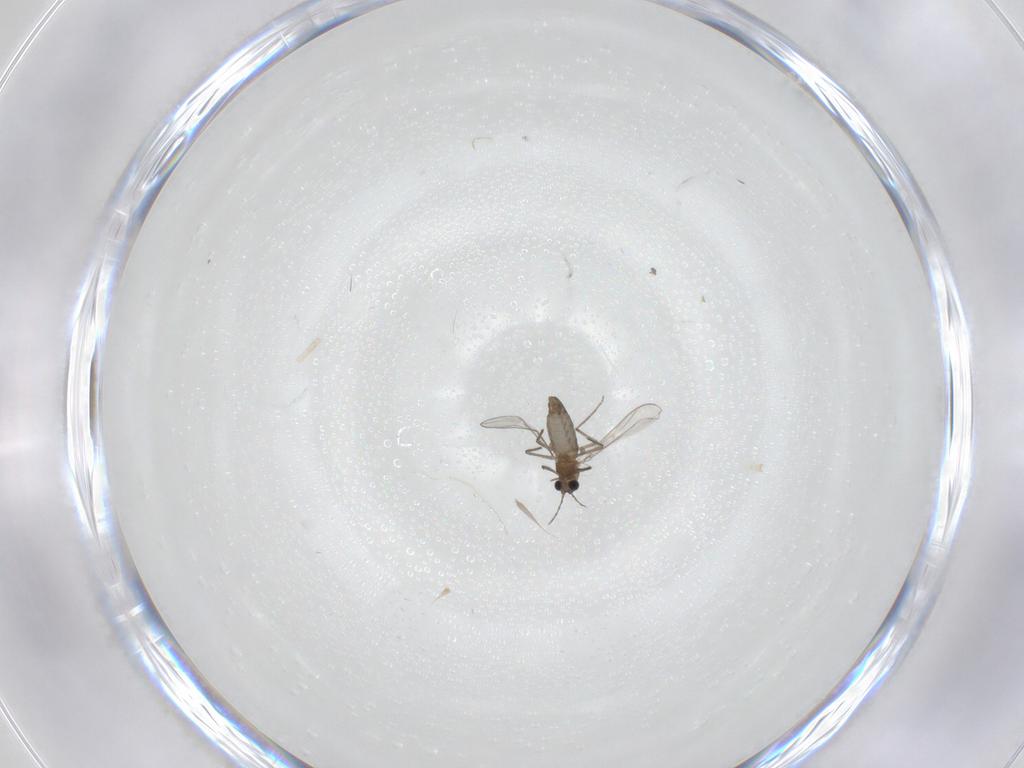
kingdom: Animalia
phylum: Arthropoda
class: Insecta
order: Diptera
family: Chironomidae
